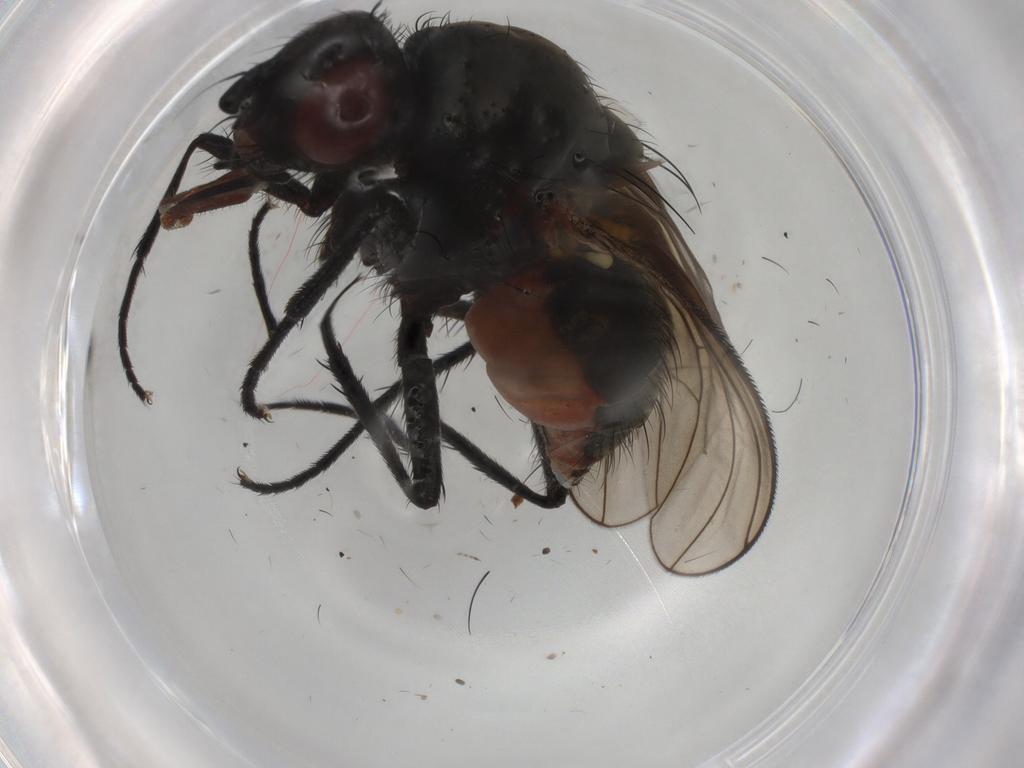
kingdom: Animalia
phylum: Arthropoda
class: Insecta
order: Diptera
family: Anthomyiidae
